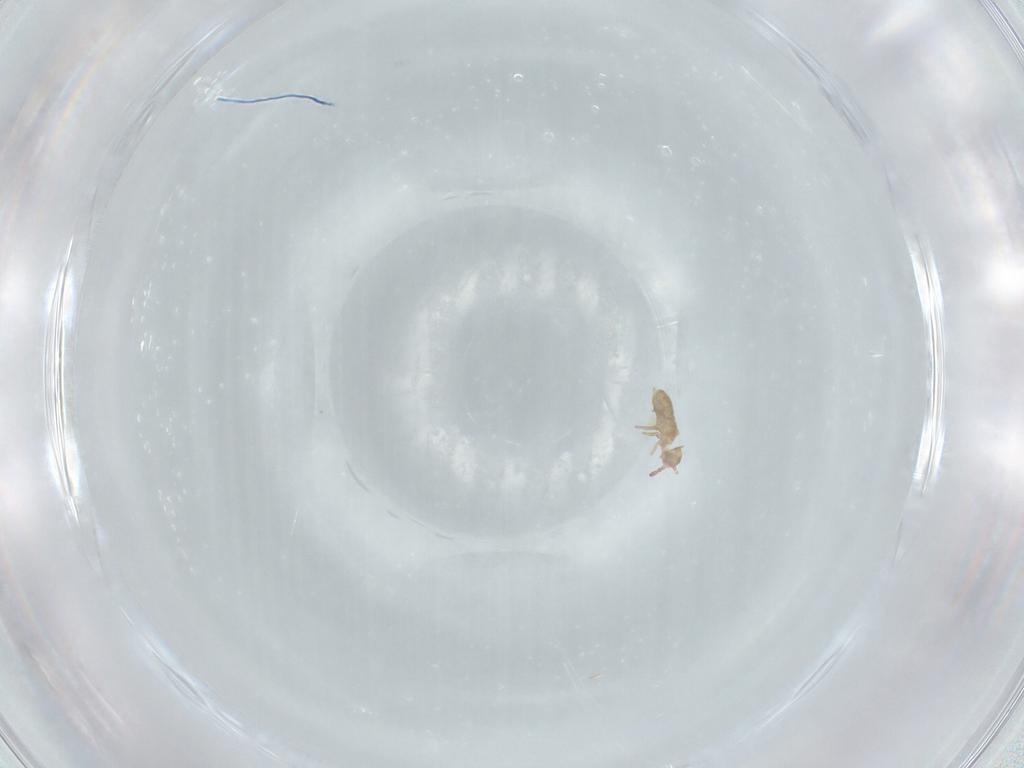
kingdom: Animalia
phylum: Arthropoda
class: Collembola
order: Entomobryomorpha
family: Isotomidae
